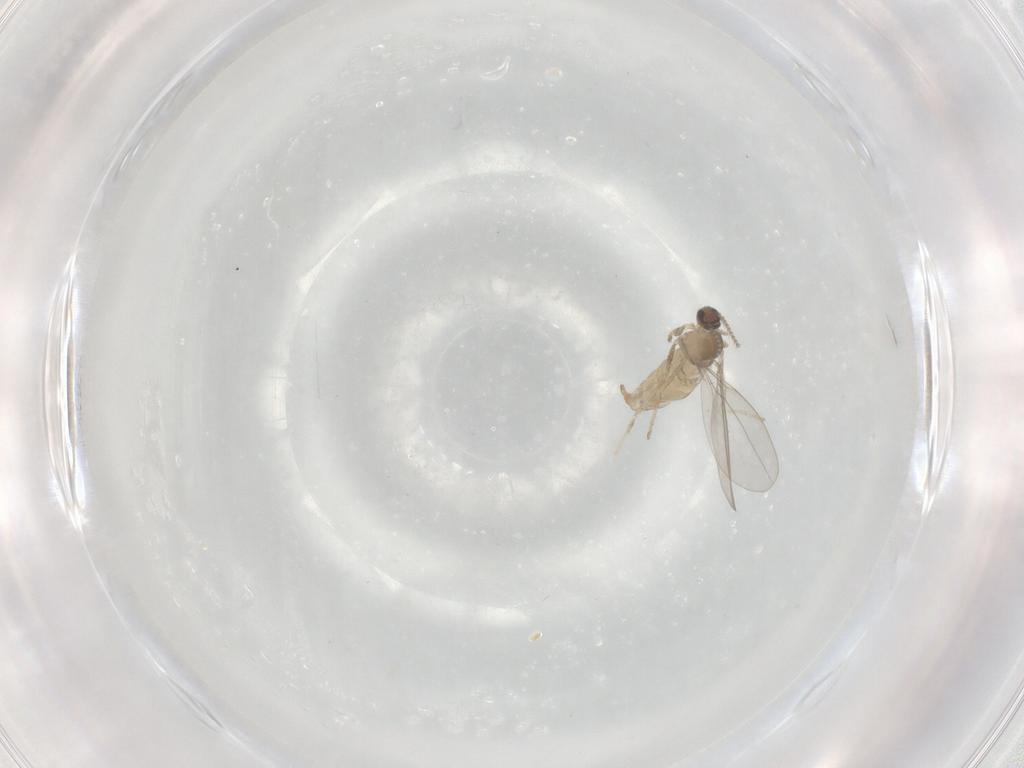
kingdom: Animalia
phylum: Arthropoda
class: Insecta
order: Diptera
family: Cecidomyiidae
